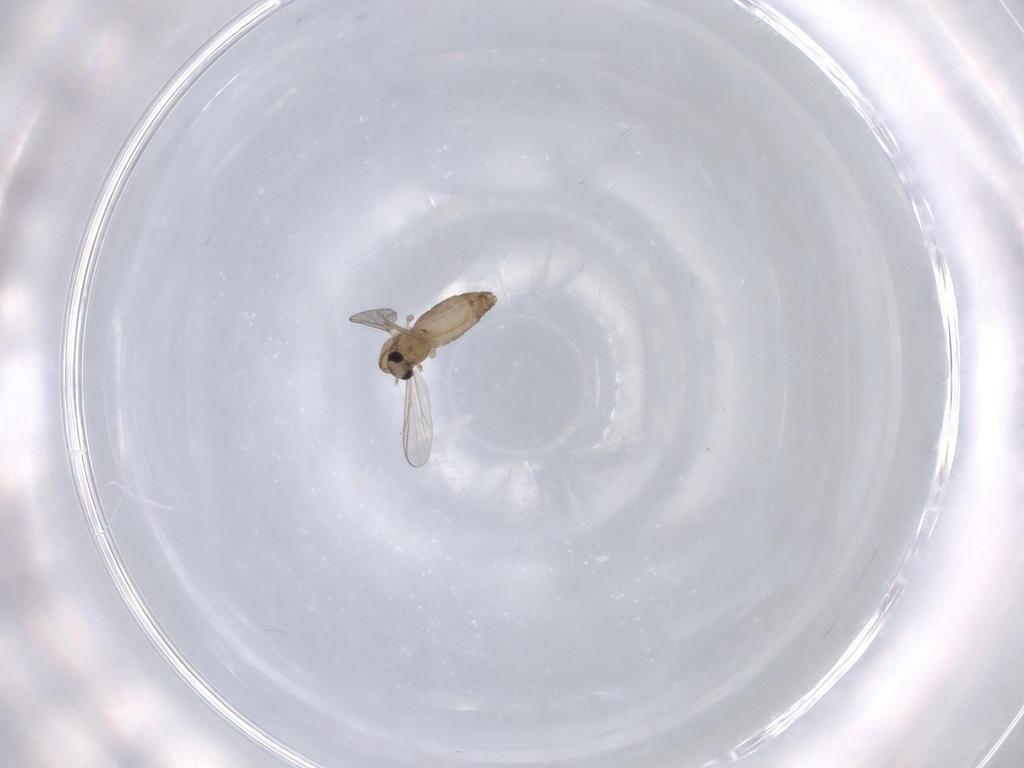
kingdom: Animalia
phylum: Arthropoda
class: Insecta
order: Diptera
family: Chironomidae
